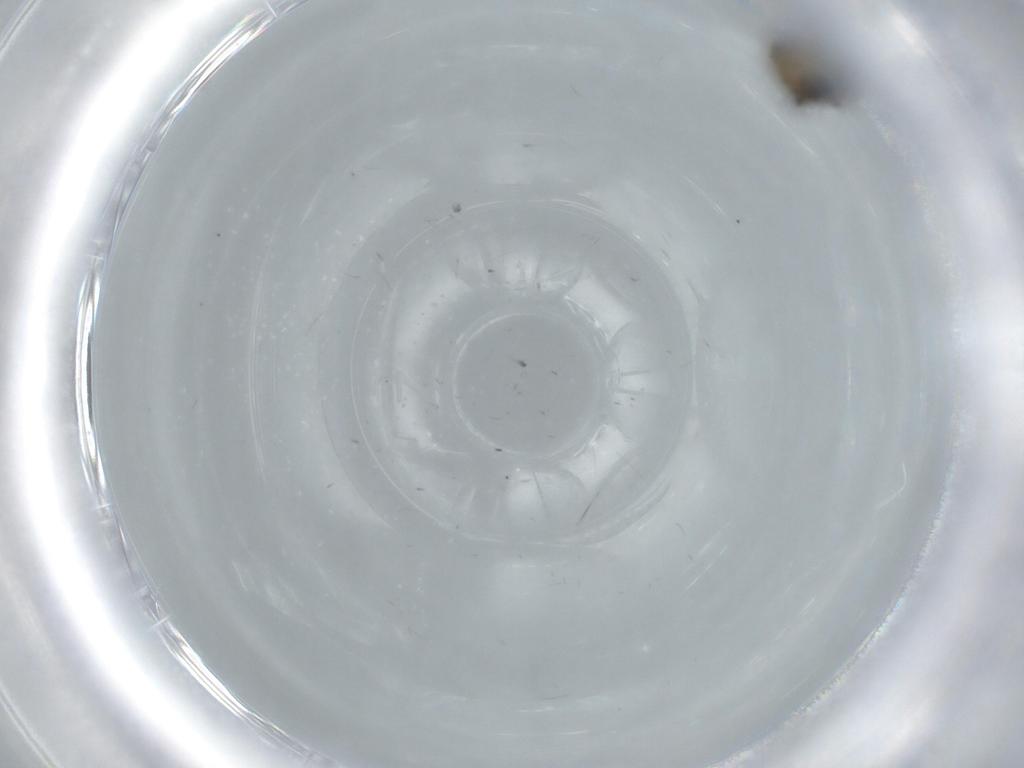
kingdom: Animalia
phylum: Arthropoda
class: Insecta
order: Diptera
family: Psychodidae
